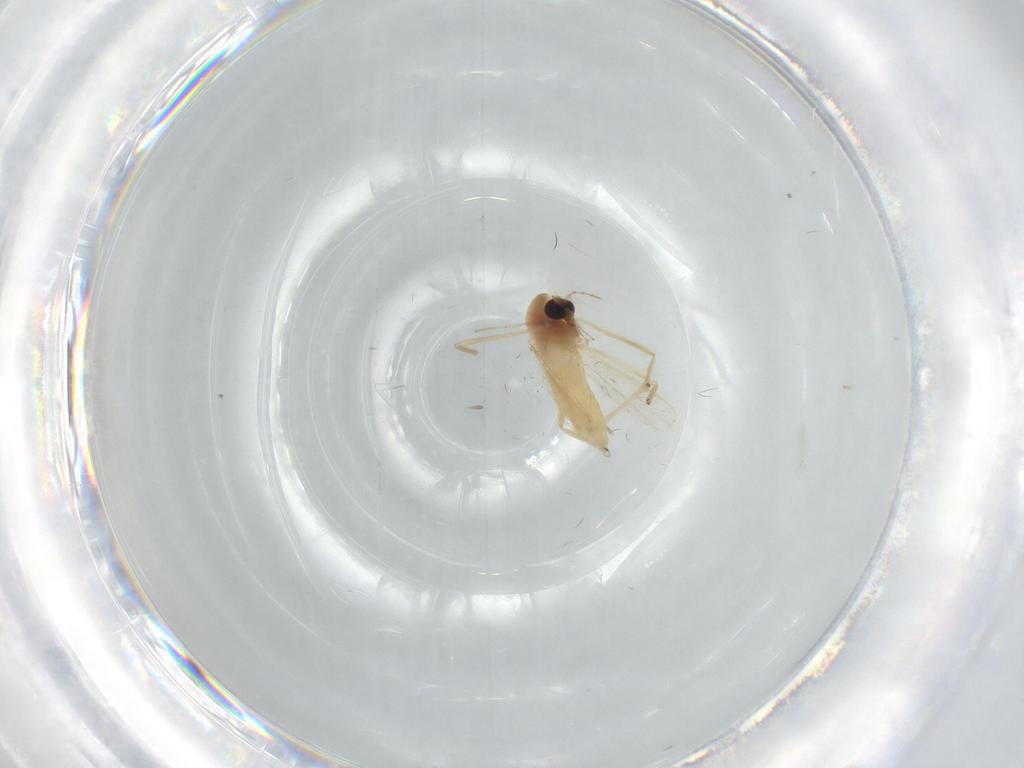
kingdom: Animalia
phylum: Arthropoda
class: Insecta
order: Diptera
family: Chironomidae
